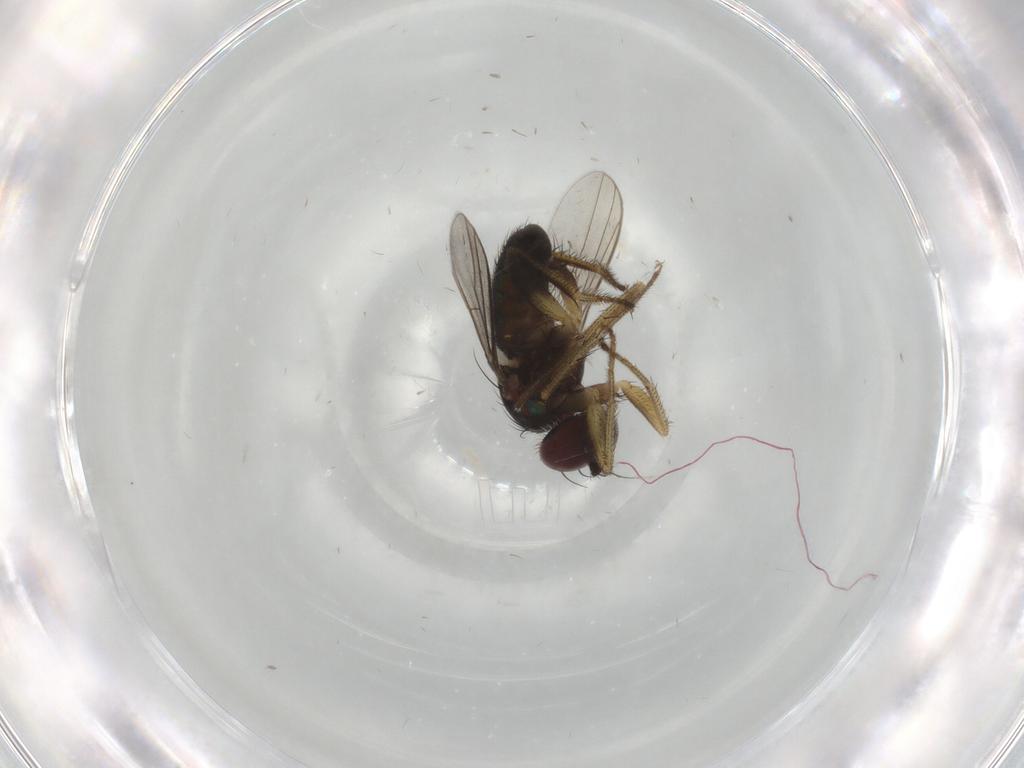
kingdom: Animalia
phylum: Arthropoda
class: Insecta
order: Diptera
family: Dolichopodidae
